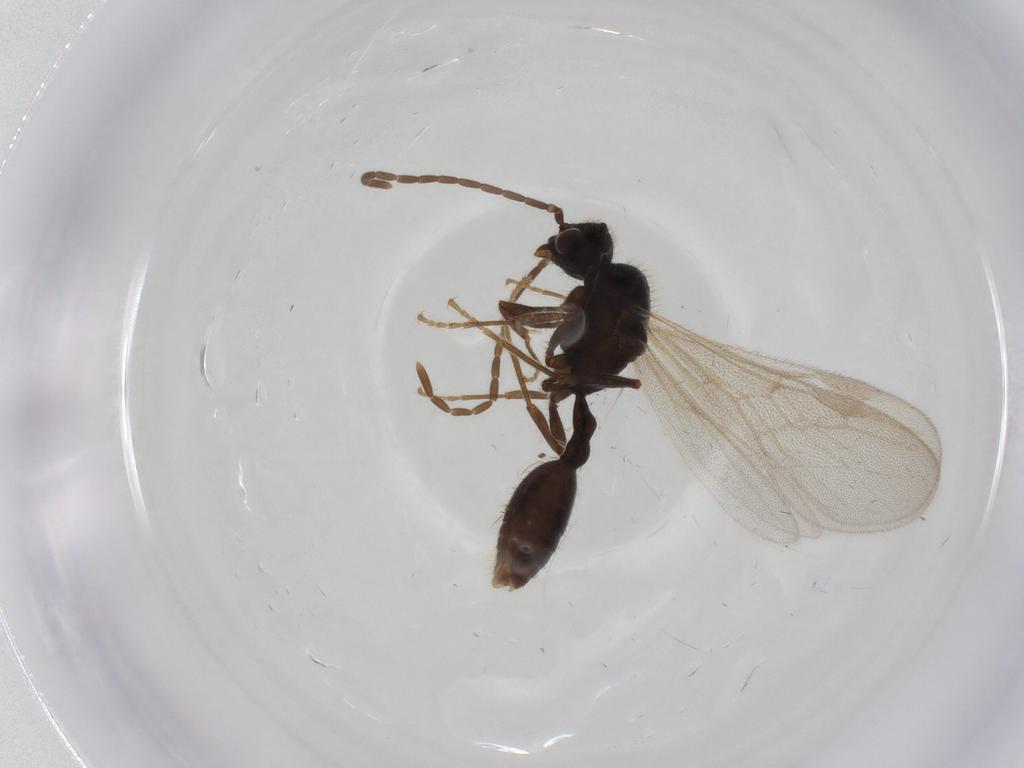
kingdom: Animalia
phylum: Arthropoda
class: Insecta
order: Hymenoptera
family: Formicidae
